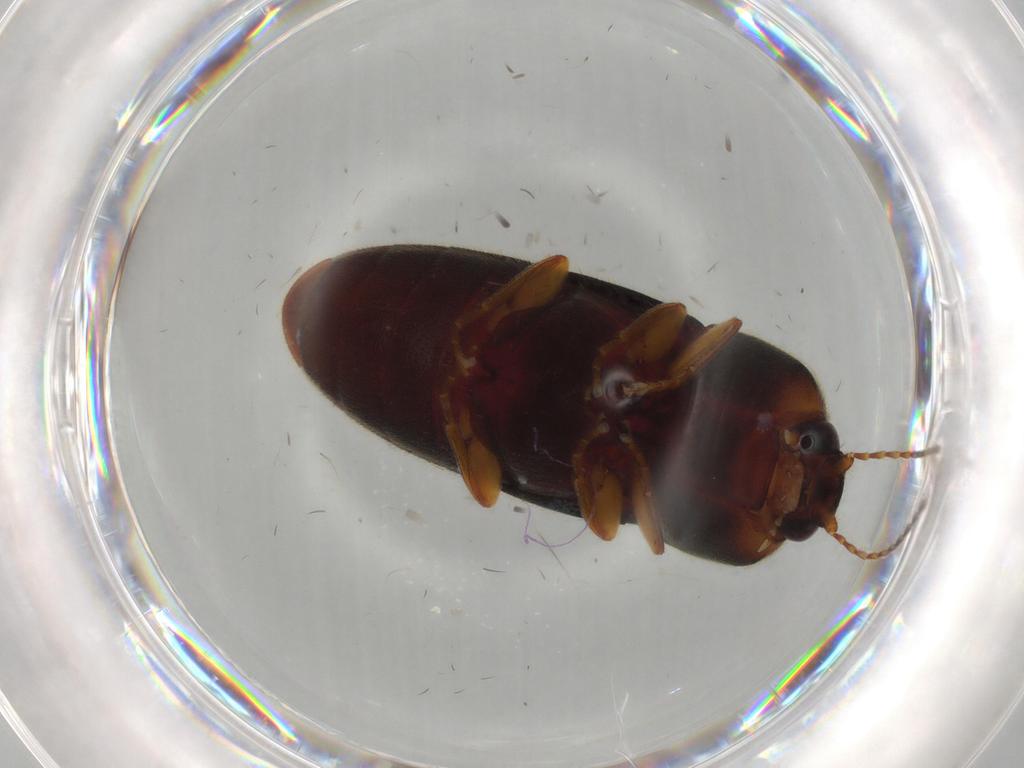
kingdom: Animalia
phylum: Arthropoda
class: Insecta
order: Coleoptera
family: Elateridae
